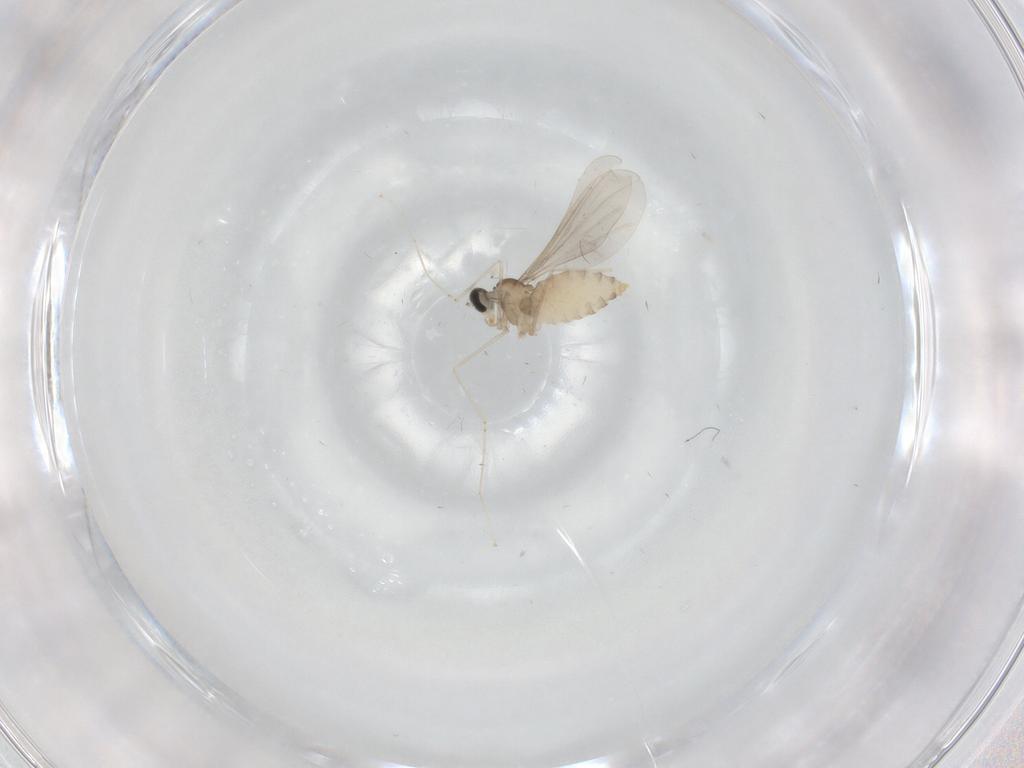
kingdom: Animalia
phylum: Arthropoda
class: Insecta
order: Diptera
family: Cecidomyiidae
